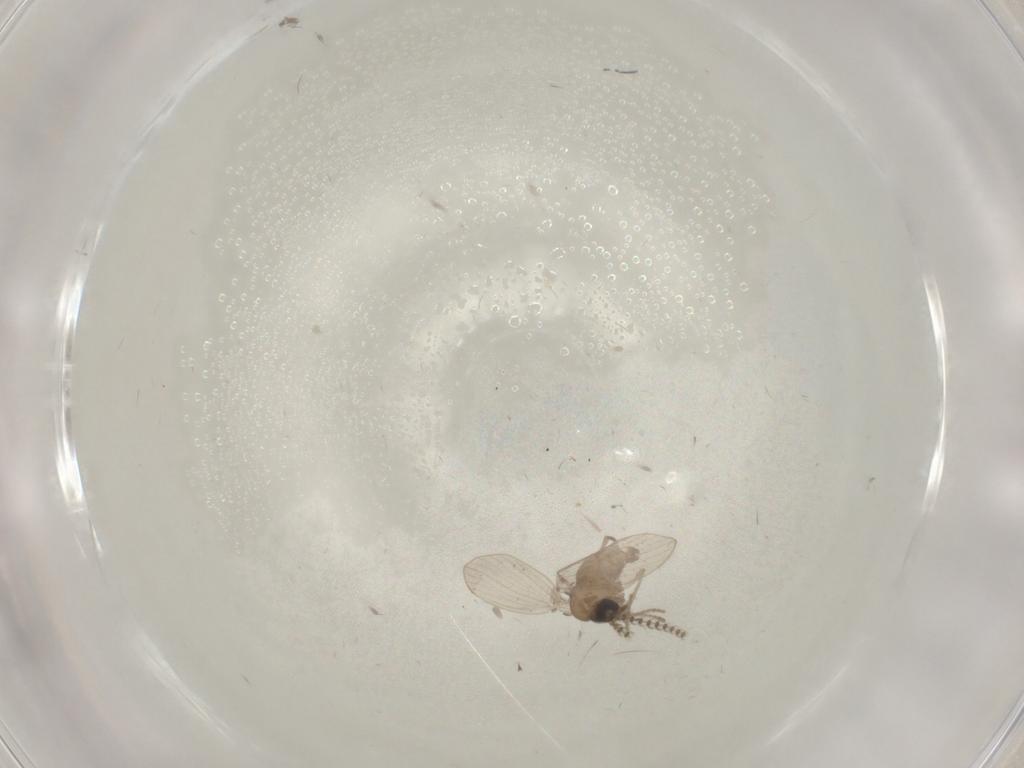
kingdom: Animalia
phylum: Arthropoda
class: Insecta
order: Diptera
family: Psychodidae
